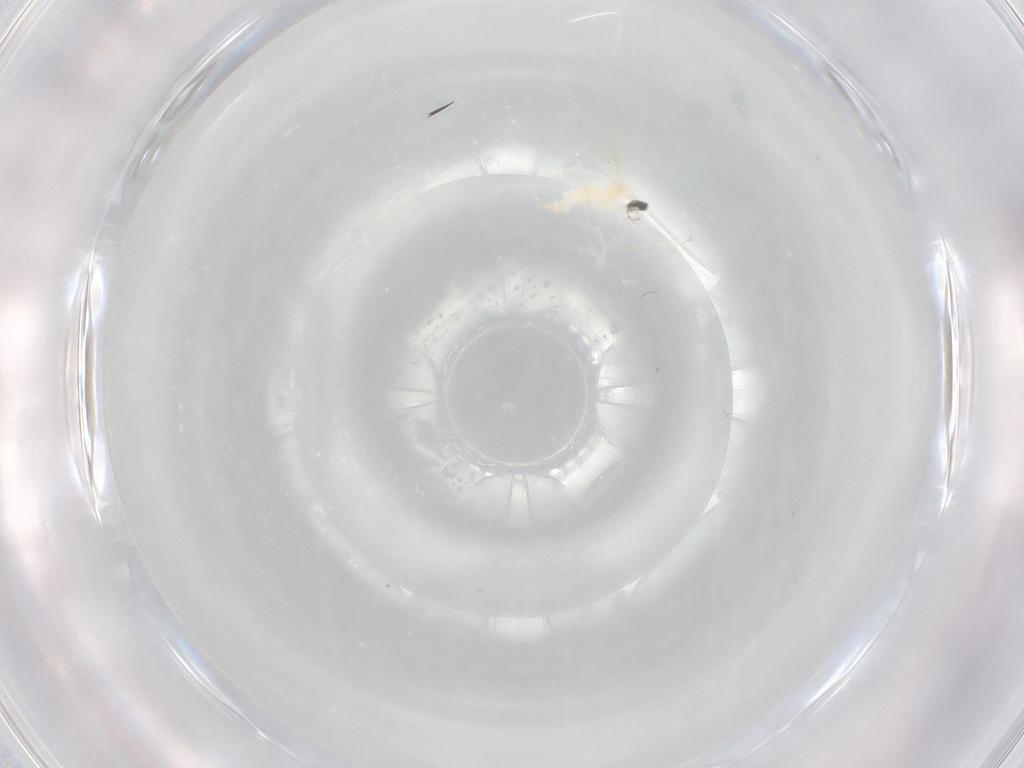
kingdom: Animalia
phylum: Arthropoda
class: Insecta
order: Diptera
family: Cecidomyiidae
